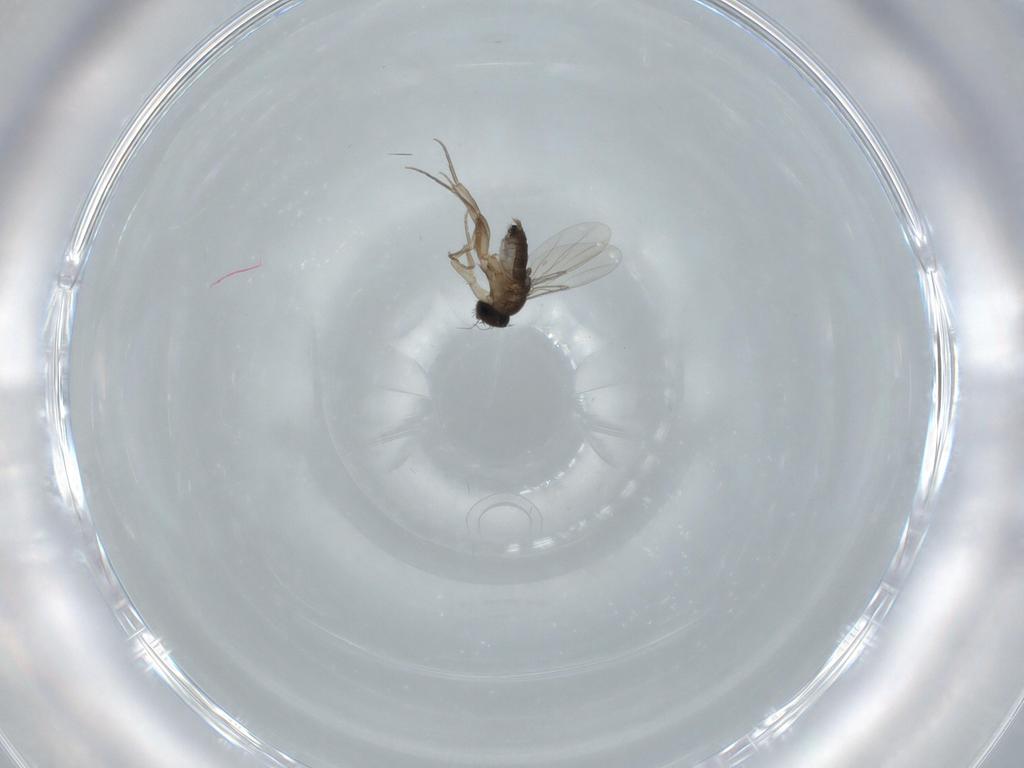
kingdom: Animalia
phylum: Arthropoda
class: Insecta
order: Diptera
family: Phoridae
